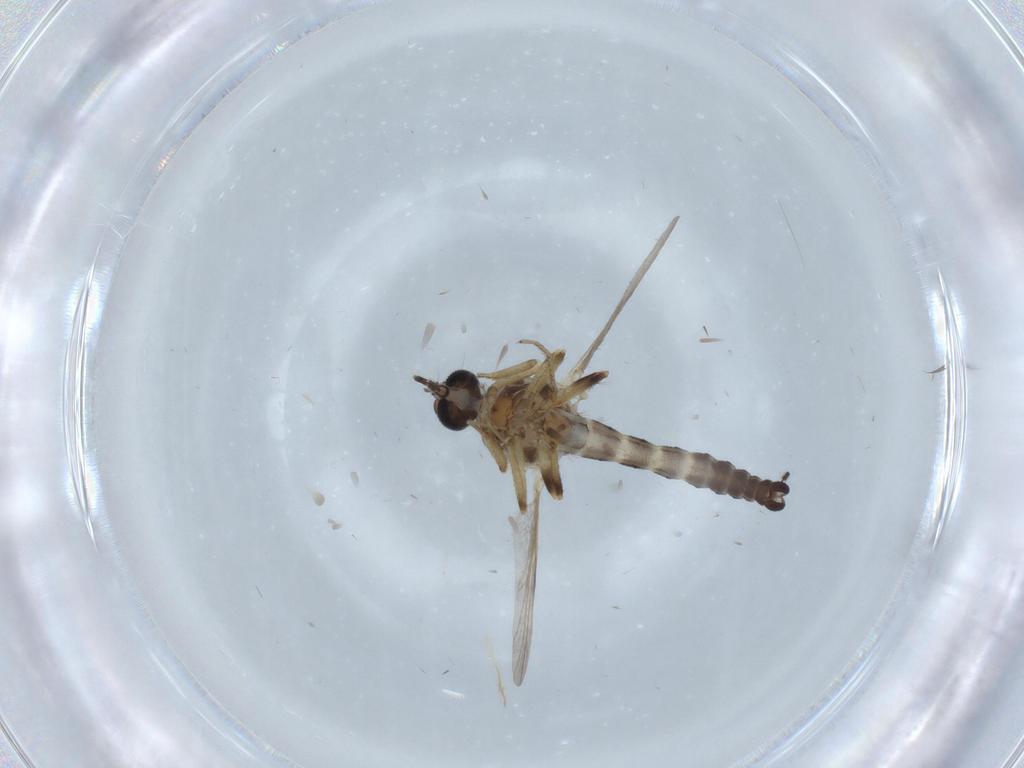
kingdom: Animalia
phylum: Arthropoda
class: Insecta
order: Diptera
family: Ceratopogonidae
